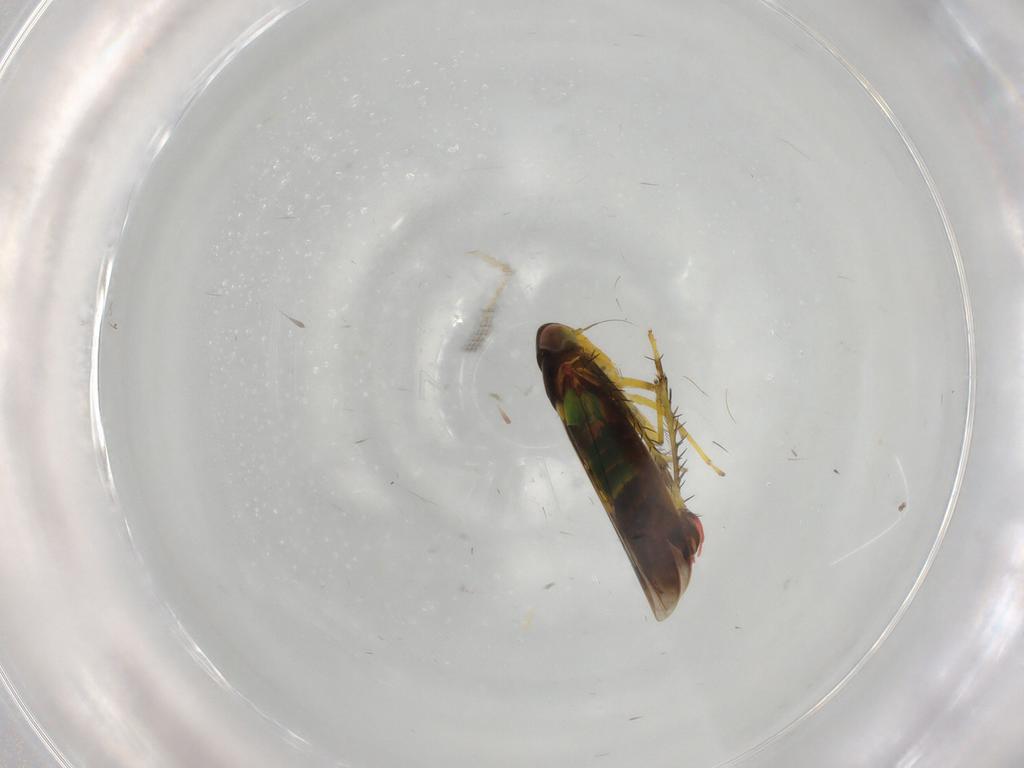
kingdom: Animalia
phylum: Arthropoda
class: Insecta
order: Hemiptera
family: Cicadellidae
